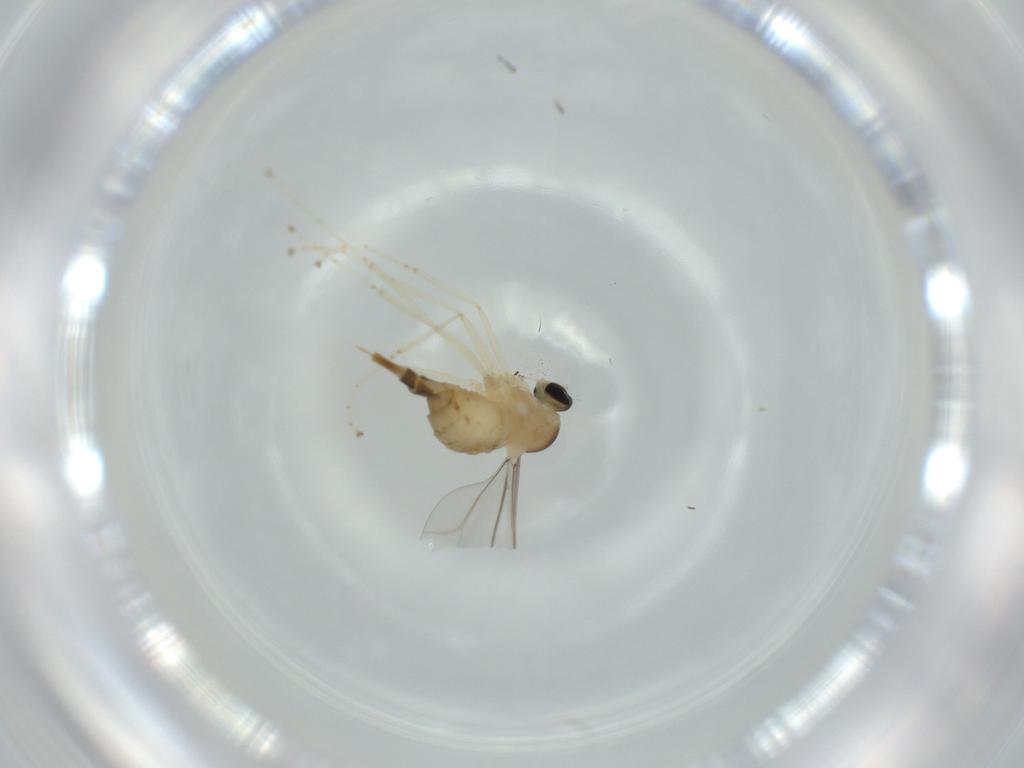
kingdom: Animalia
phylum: Arthropoda
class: Insecta
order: Diptera
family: Cecidomyiidae
